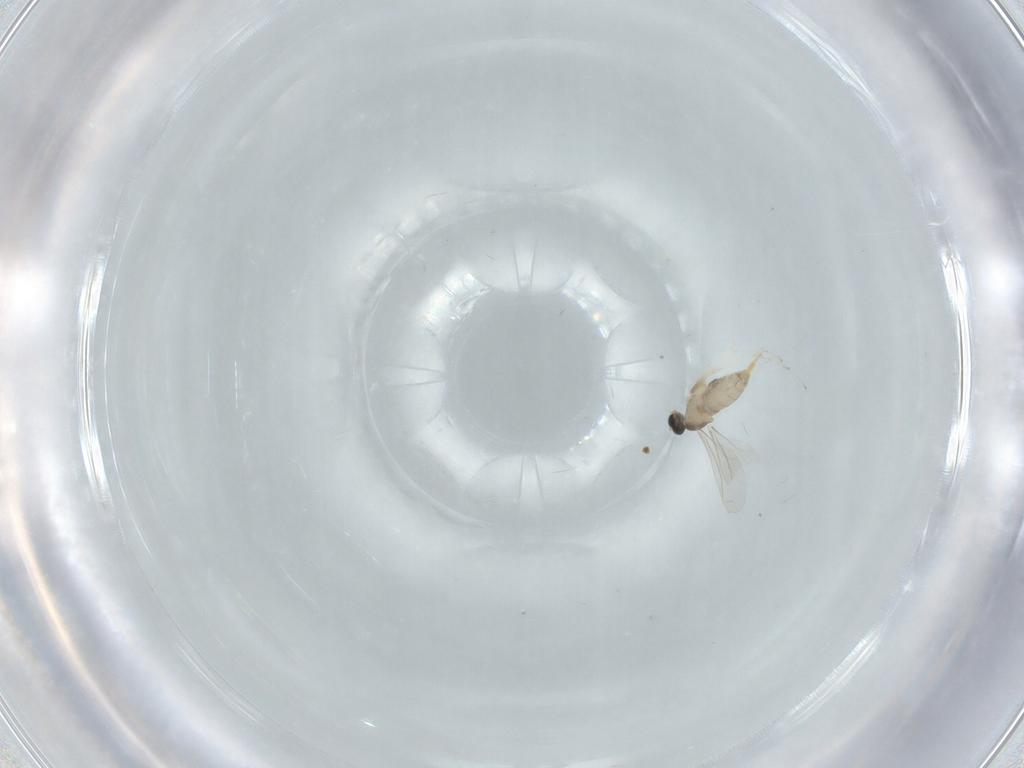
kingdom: Animalia
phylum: Arthropoda
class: Insecta
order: Diptera
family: Cecidomyiidae
